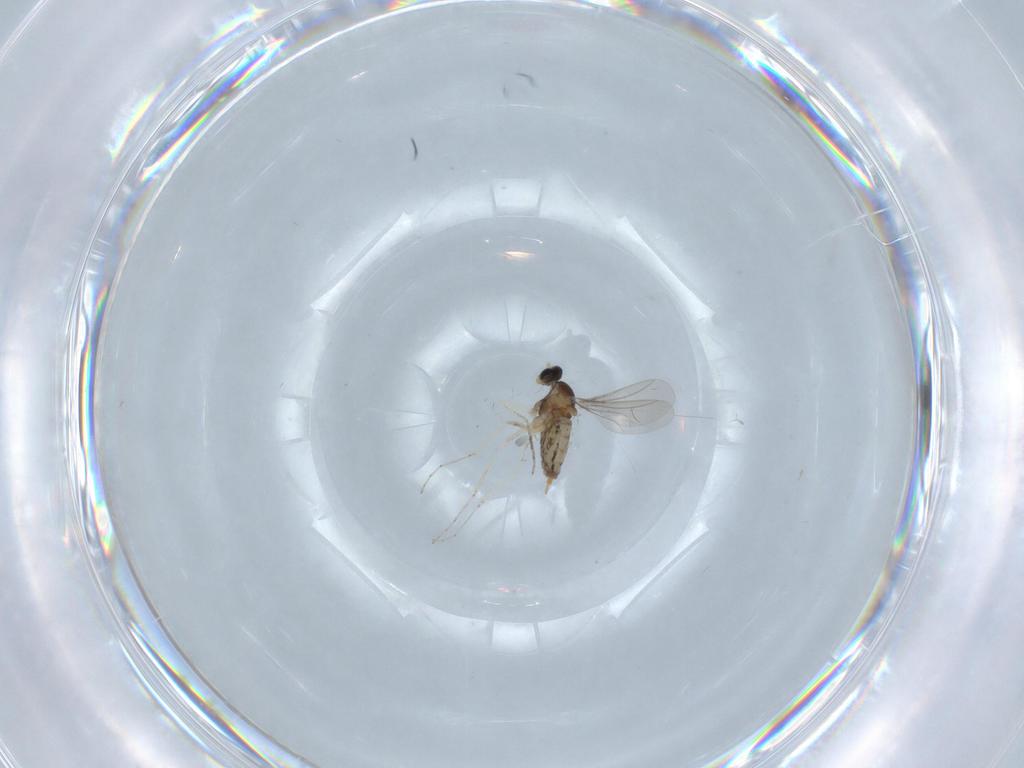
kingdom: Animalia
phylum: Arthropoda
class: Insecta
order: Diptera
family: Cecidomyiidae
